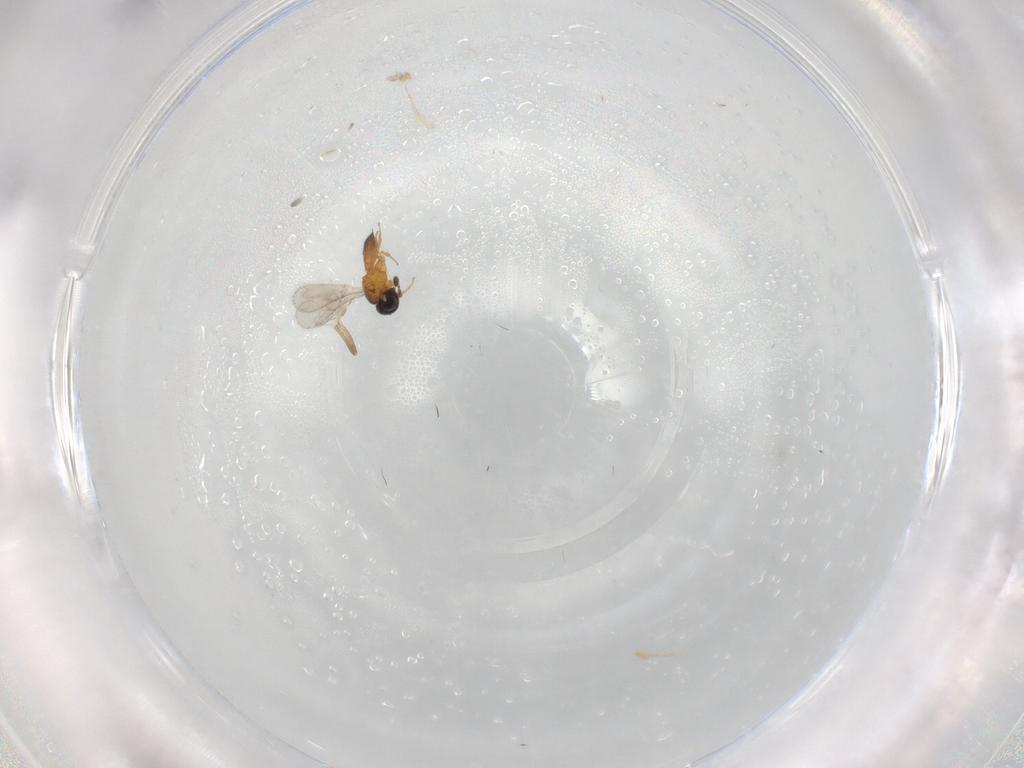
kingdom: Animalia
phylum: Arthropoda
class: Insecta
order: Hymenoptera
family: Scelionidae
